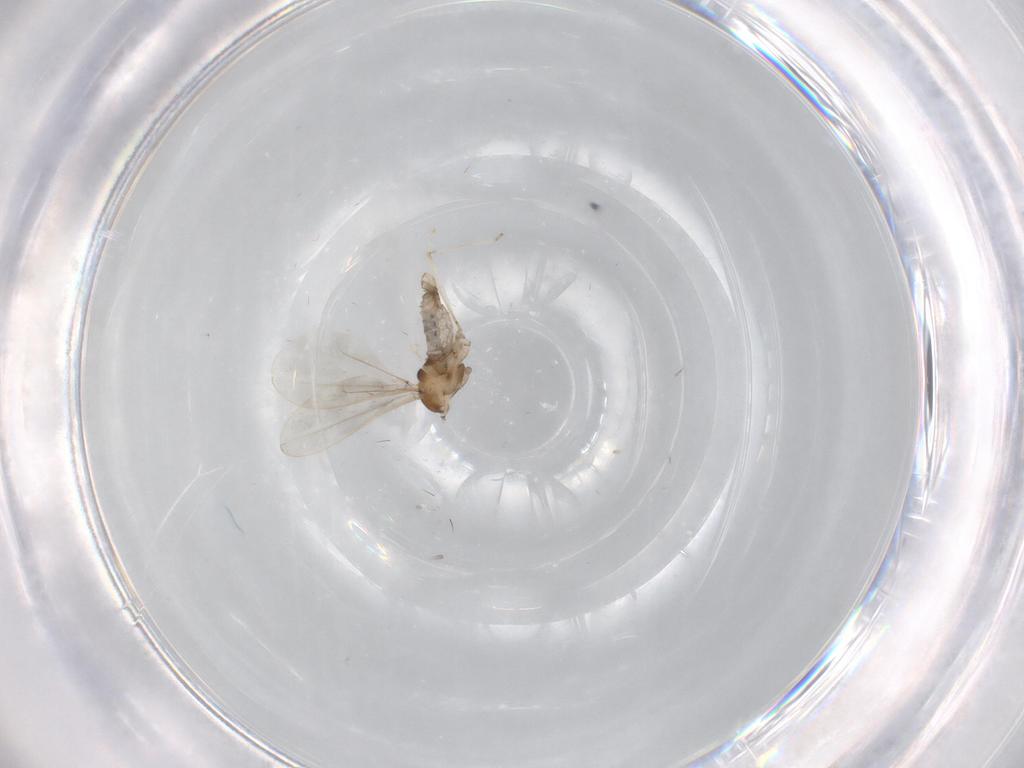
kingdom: Animalia
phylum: Arthropoda
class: Insecta
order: Diptera
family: Cecidomyiidae
